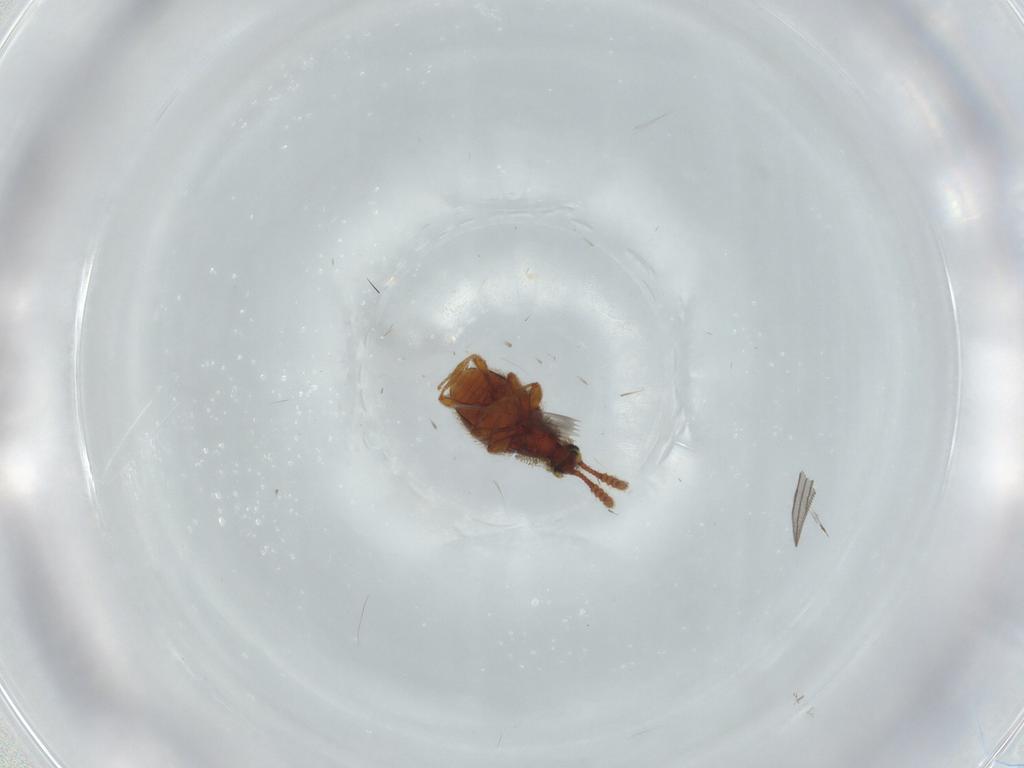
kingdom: Animalia
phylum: Arthropoda
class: Insecta
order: Coleoptera
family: Staphylinidae
